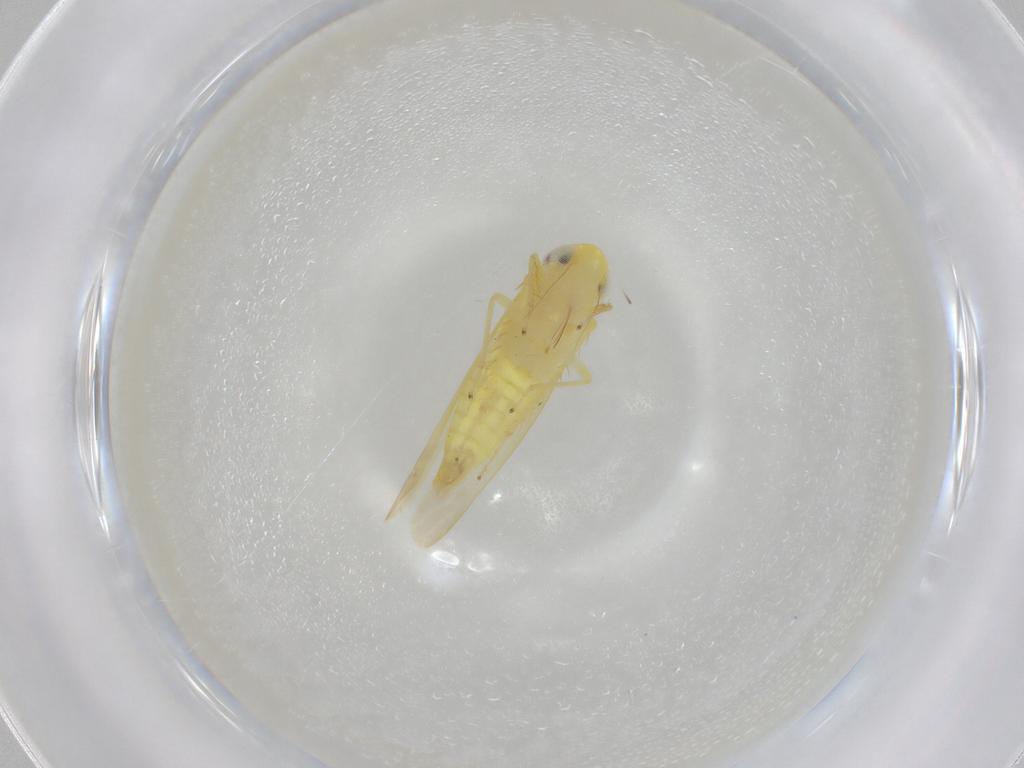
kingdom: Animalia
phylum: Arthropoda
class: Insecta
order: Hemiptera
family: Cicadellidae
